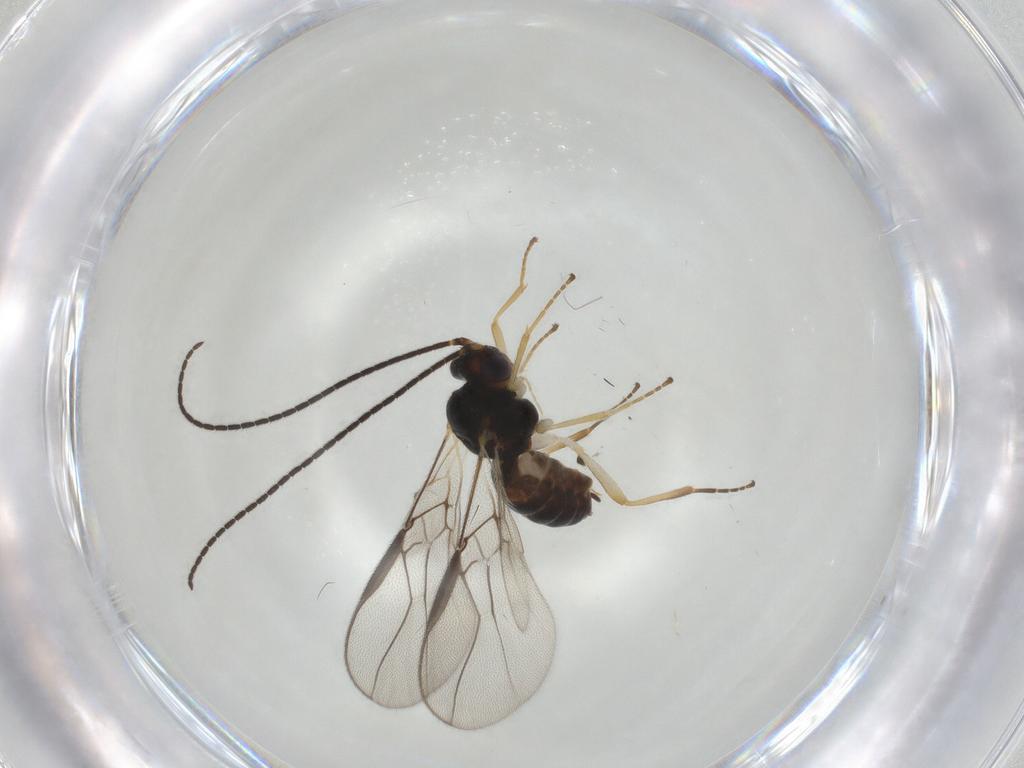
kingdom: Animalia
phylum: Arthropoda
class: Insecta
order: Hymenoptera
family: Braconidae
